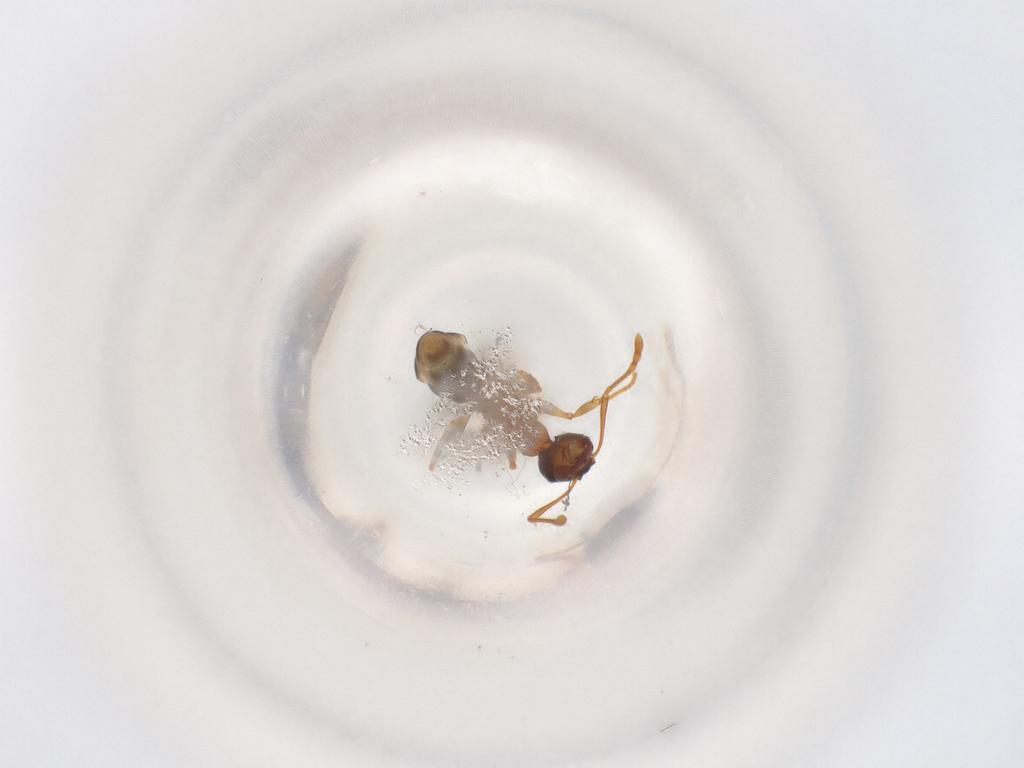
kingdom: Animalia
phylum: Arthropoda
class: Insecta
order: Hymenoptera
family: Formicidae
